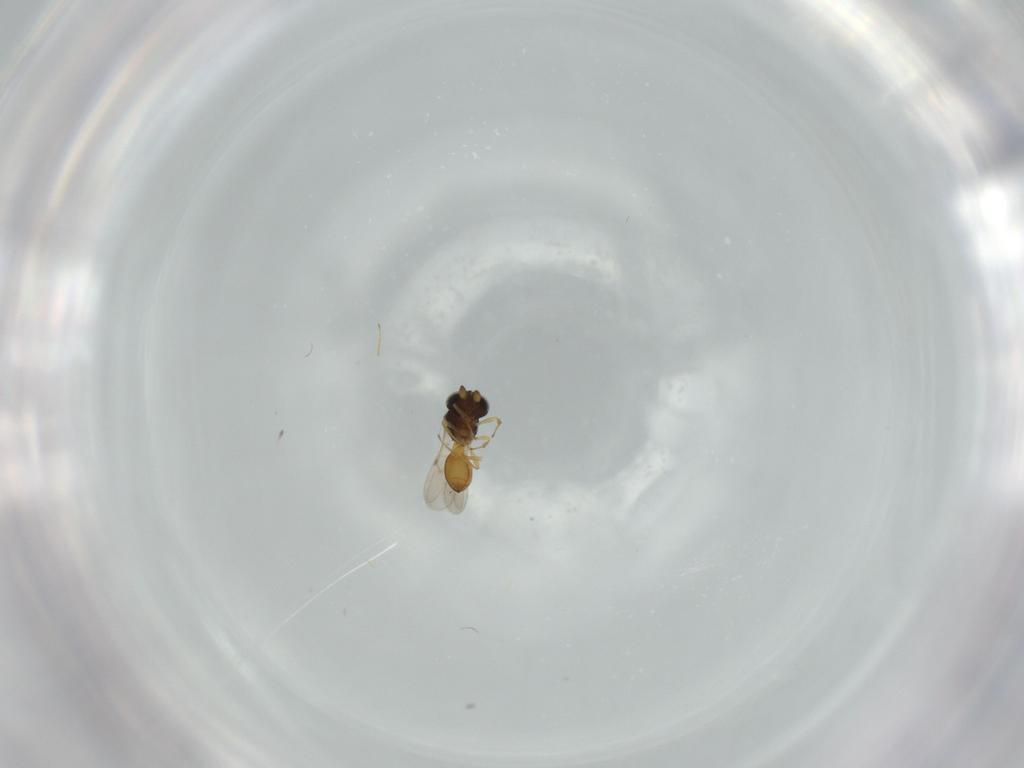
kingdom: Animalia
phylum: Arthropoda
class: Insecta
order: Hymenoptera
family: Scelionidae
